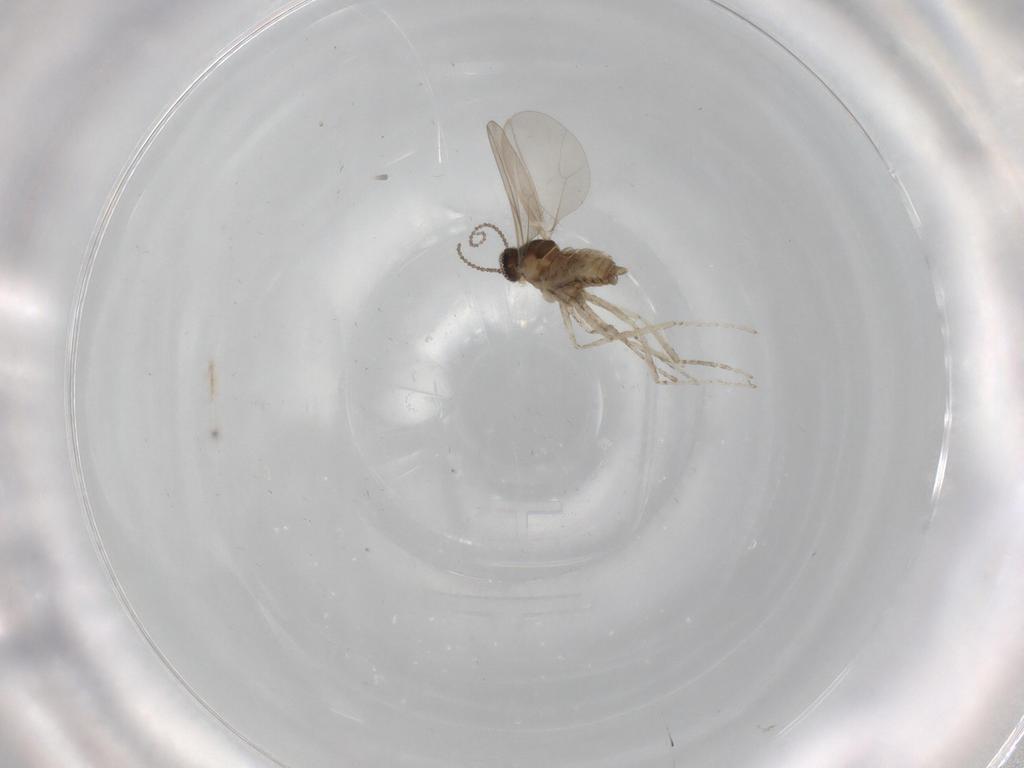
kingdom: Animalia
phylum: Arthropoda
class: Insecta
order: Diptera
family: Cecidomyiidae
